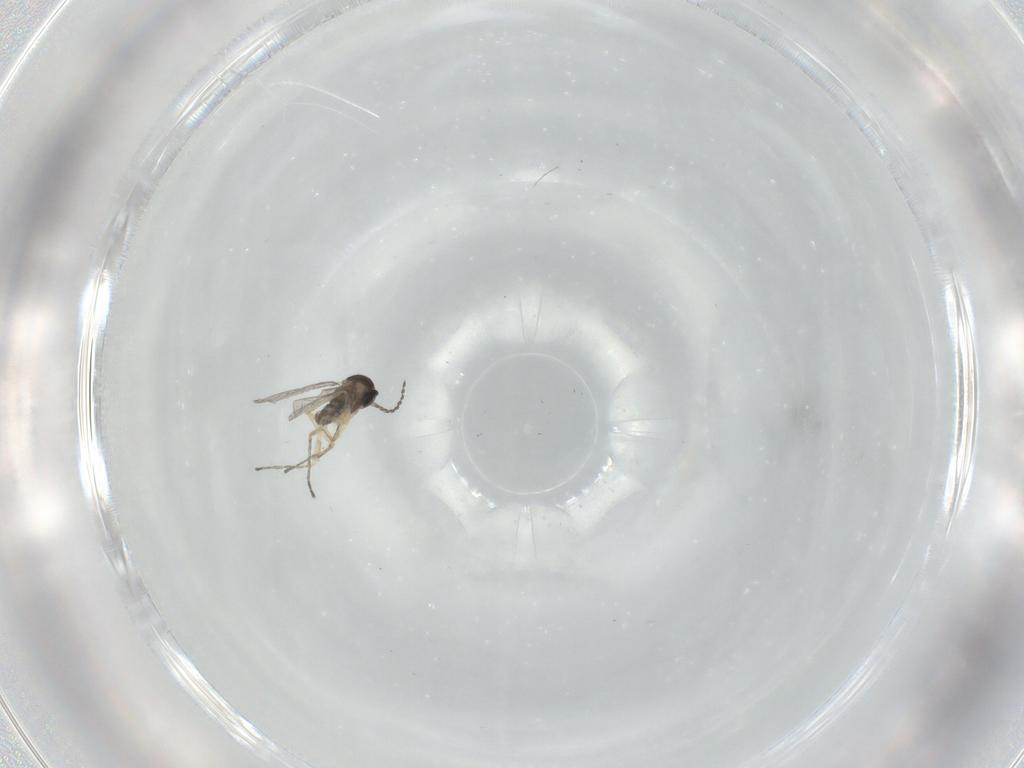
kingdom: Animalia
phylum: Arthropoda
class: Insecta
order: Diptera
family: Cecidomyiidae
